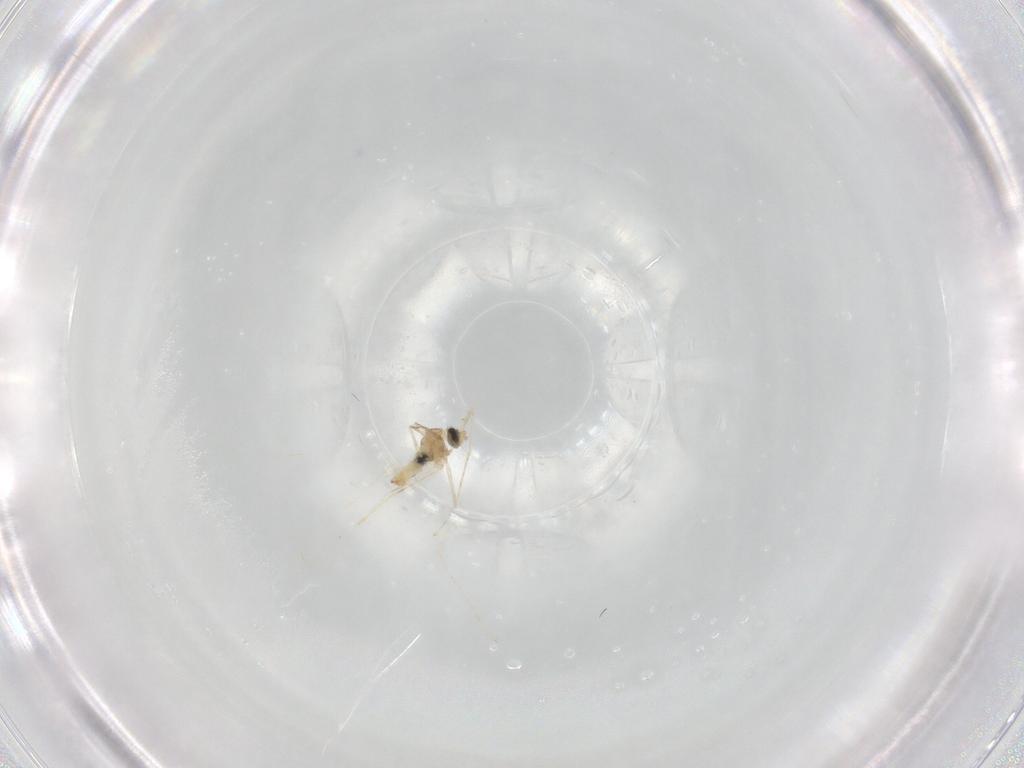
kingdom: Animalia
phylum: Arthropoda
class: Insecta
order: Diptera
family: Cecidomyiidae
